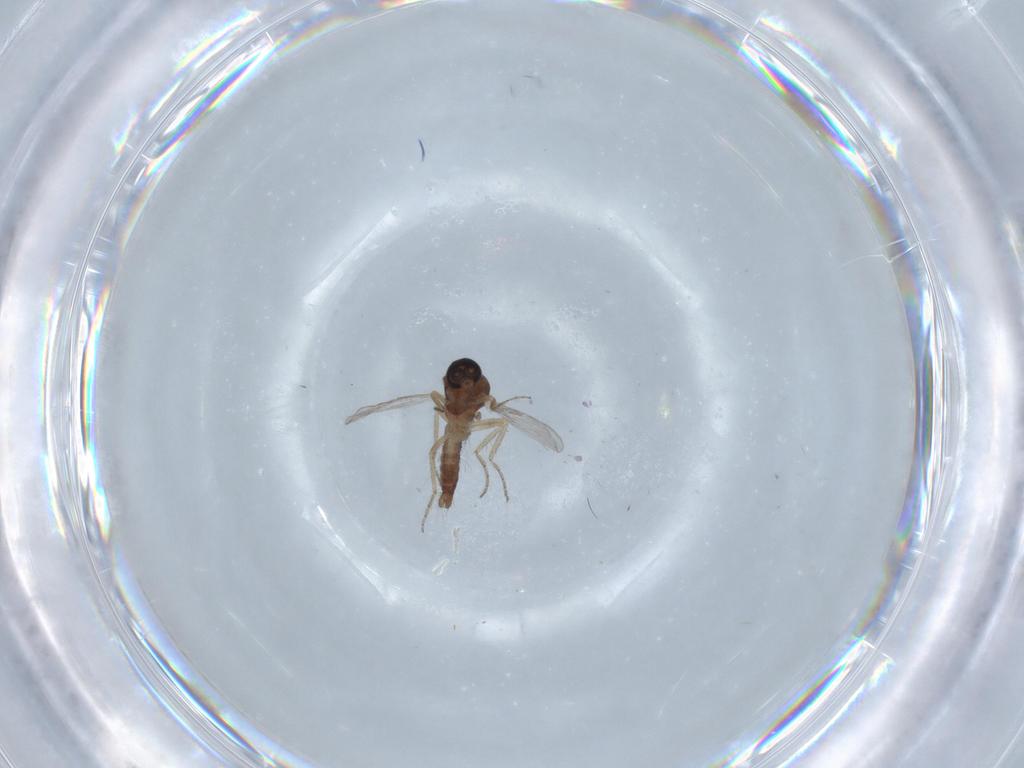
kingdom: Animalia
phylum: Arthropoda
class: Insecta
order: Diptera
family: Ceratopogonidae
